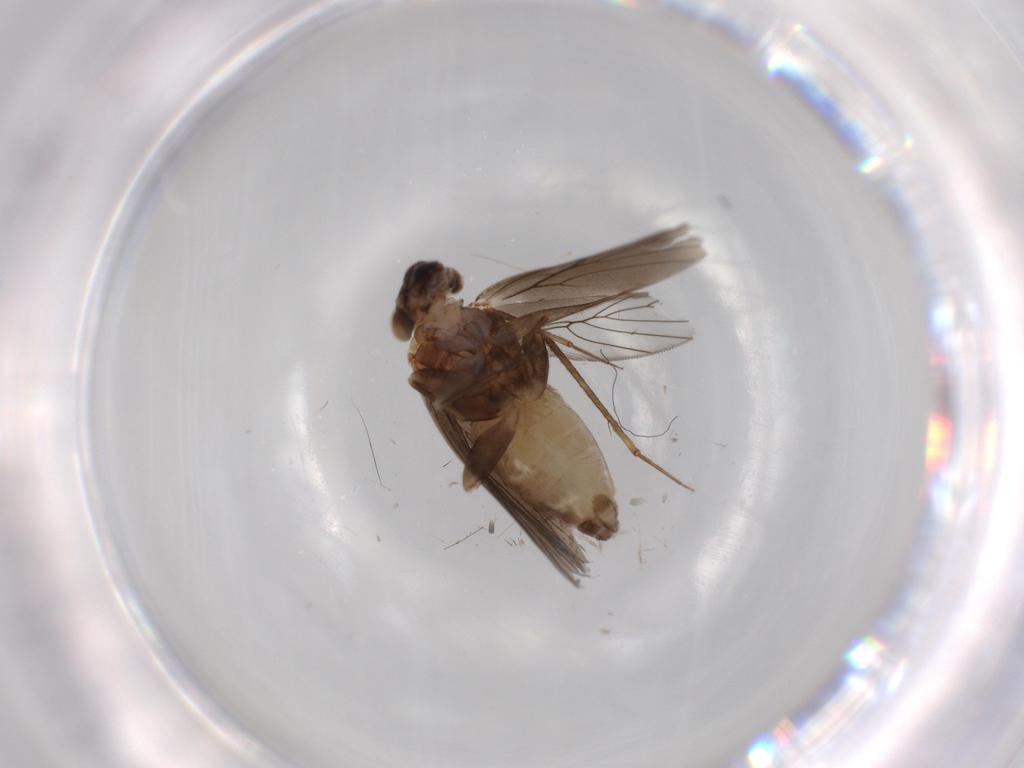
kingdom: Animalia
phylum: Arthropoda
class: Insecta
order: Psocodea
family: Lepidopsocidae
